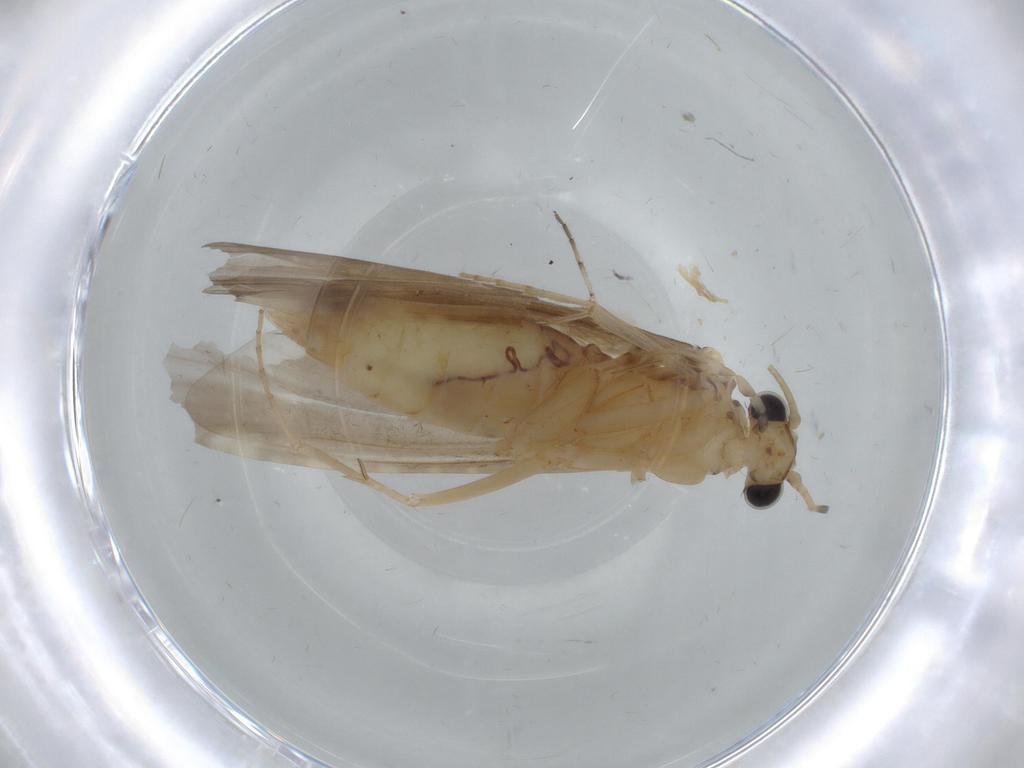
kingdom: Animalia
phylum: Arthropoda
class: Insecta
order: Trichoptera
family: Ecnomidae
